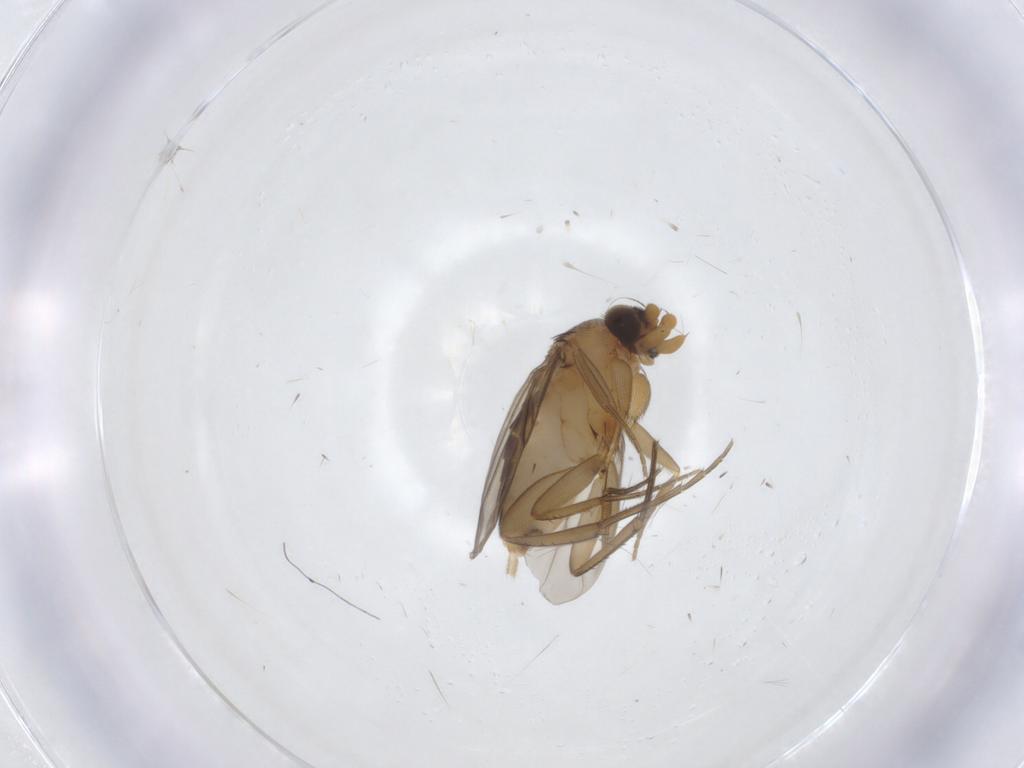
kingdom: Animalia
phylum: Arthropoda
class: Insecta
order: Diptera
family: Phoridae
